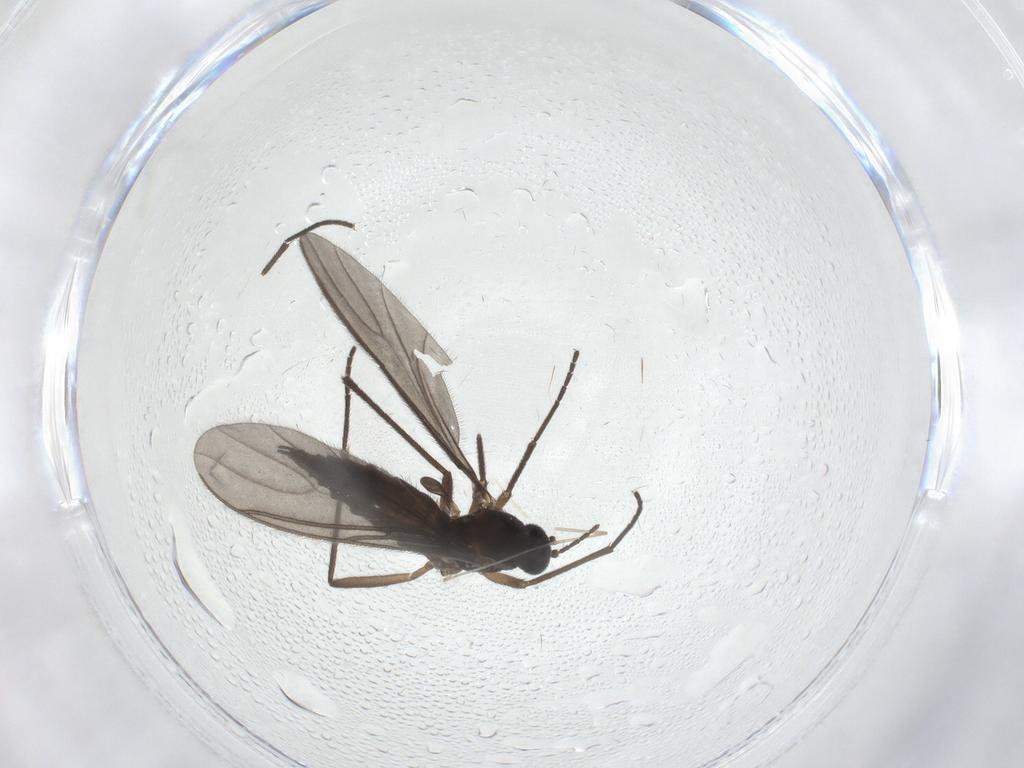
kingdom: Animalia
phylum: Arthropoda
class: Insecta
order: Diptera
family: Sciaridae
